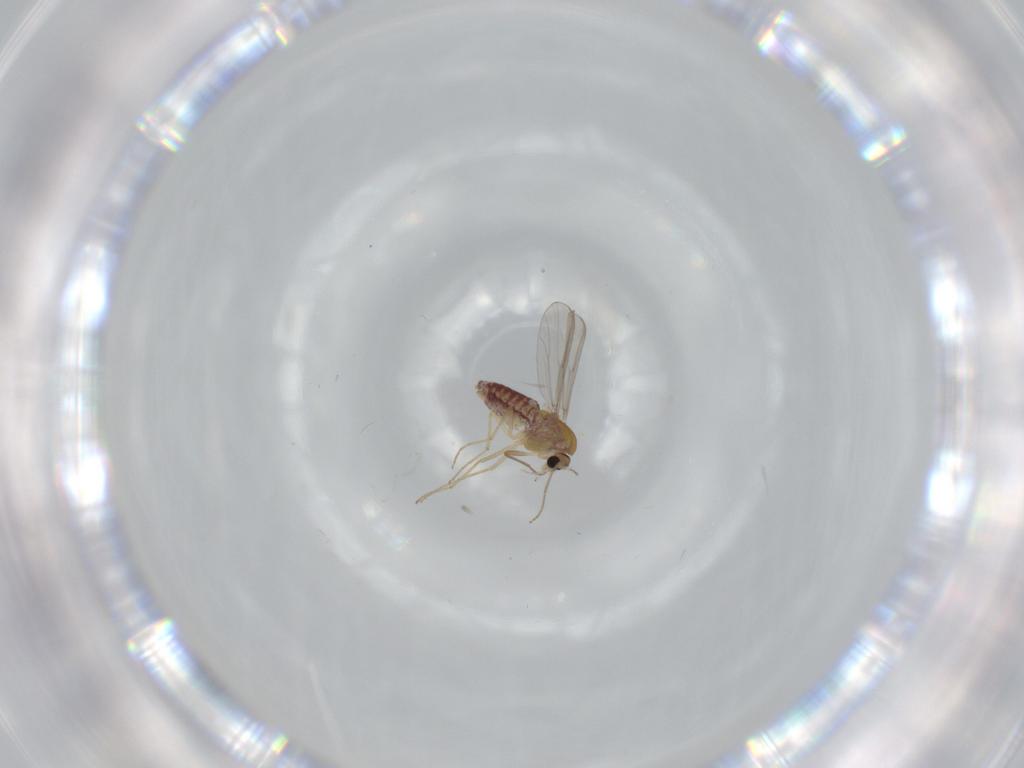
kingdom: Animalia
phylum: Arthropoda
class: Insecta
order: Diptera
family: Chironomidae
